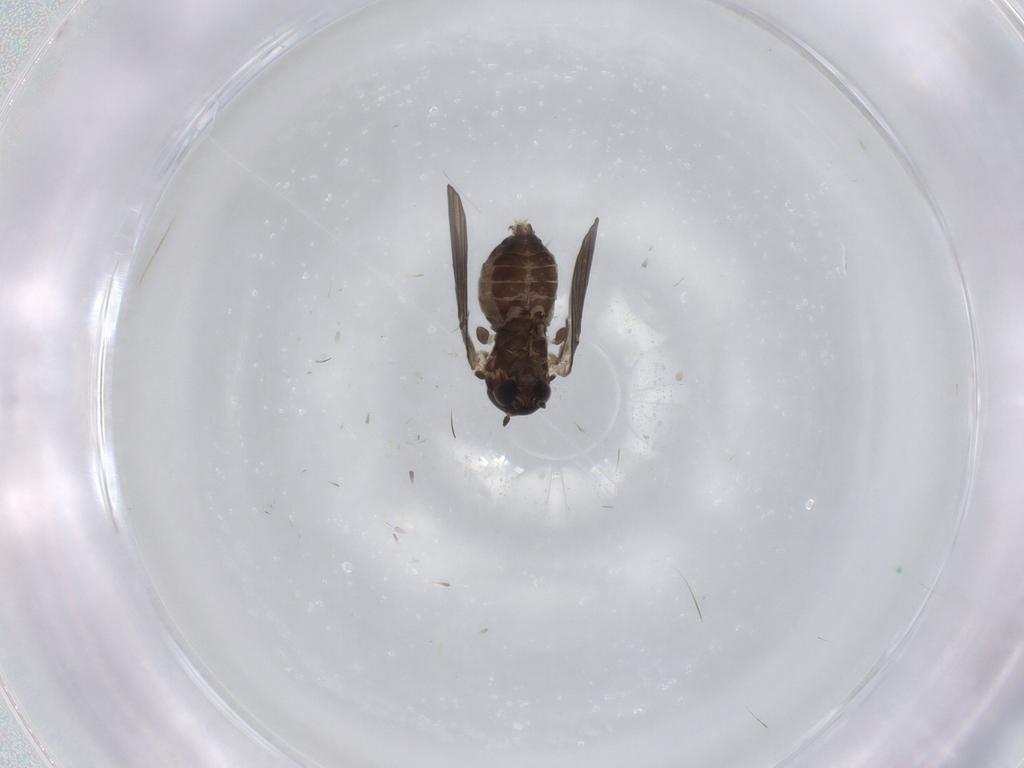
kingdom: Animalia
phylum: Arthropoda
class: Insecta
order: Diptera
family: Psychodidae
